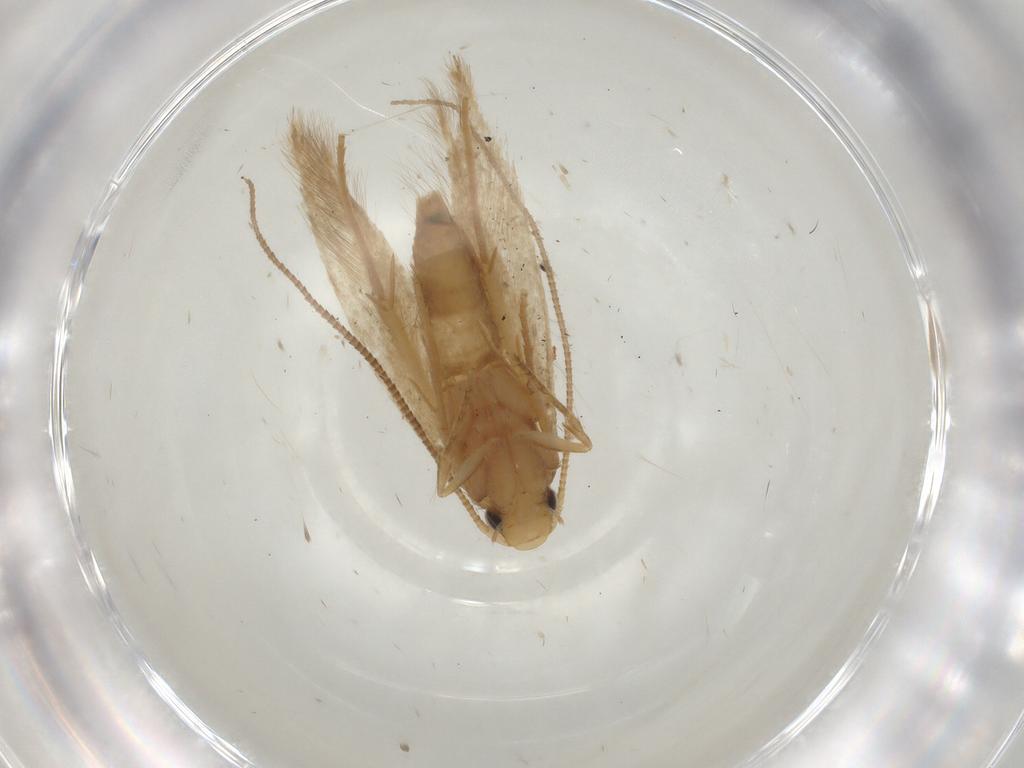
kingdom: Animalia
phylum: Arthropoda
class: Insecta
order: Lepidoptera
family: Tineidae
